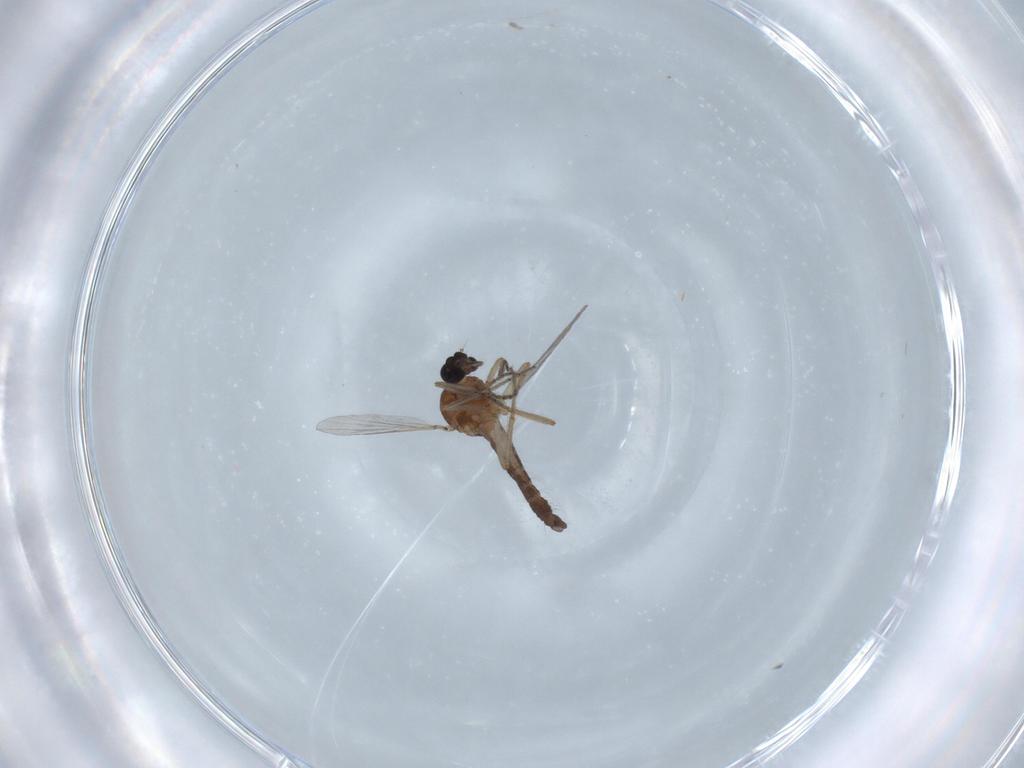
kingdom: Animalia
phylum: Arthropoda
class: Insecta
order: Diptera
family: Ceratopogonidae
